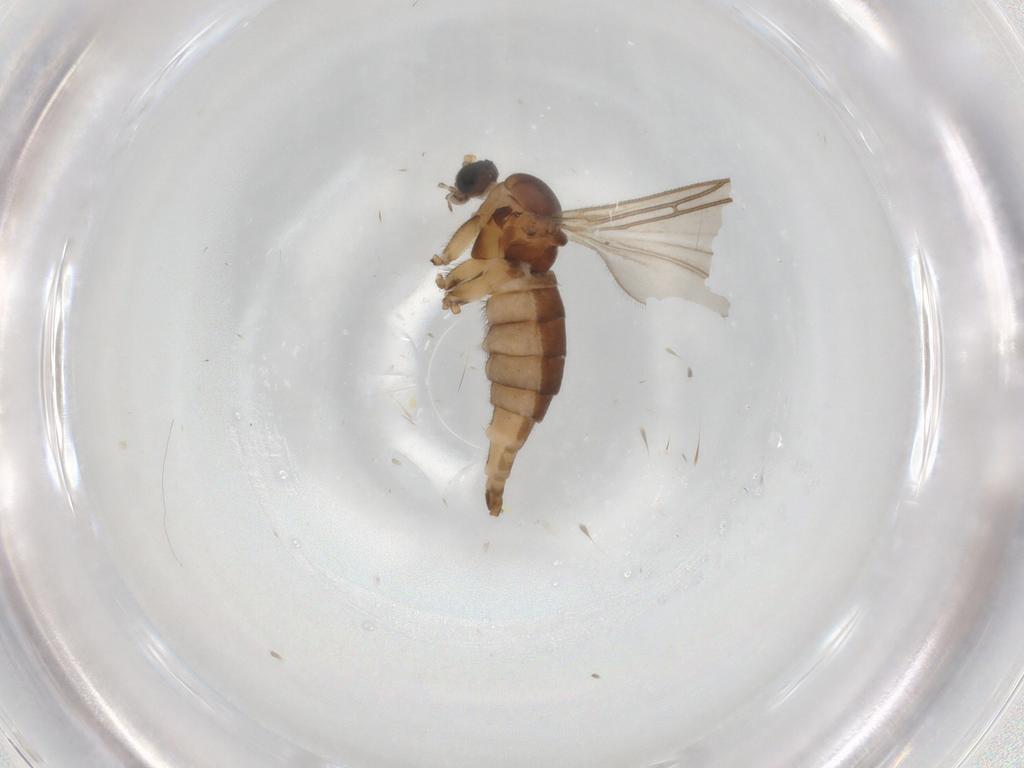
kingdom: Animalia
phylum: Arthropoda
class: Insecta
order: Diptera
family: Sciaridae
